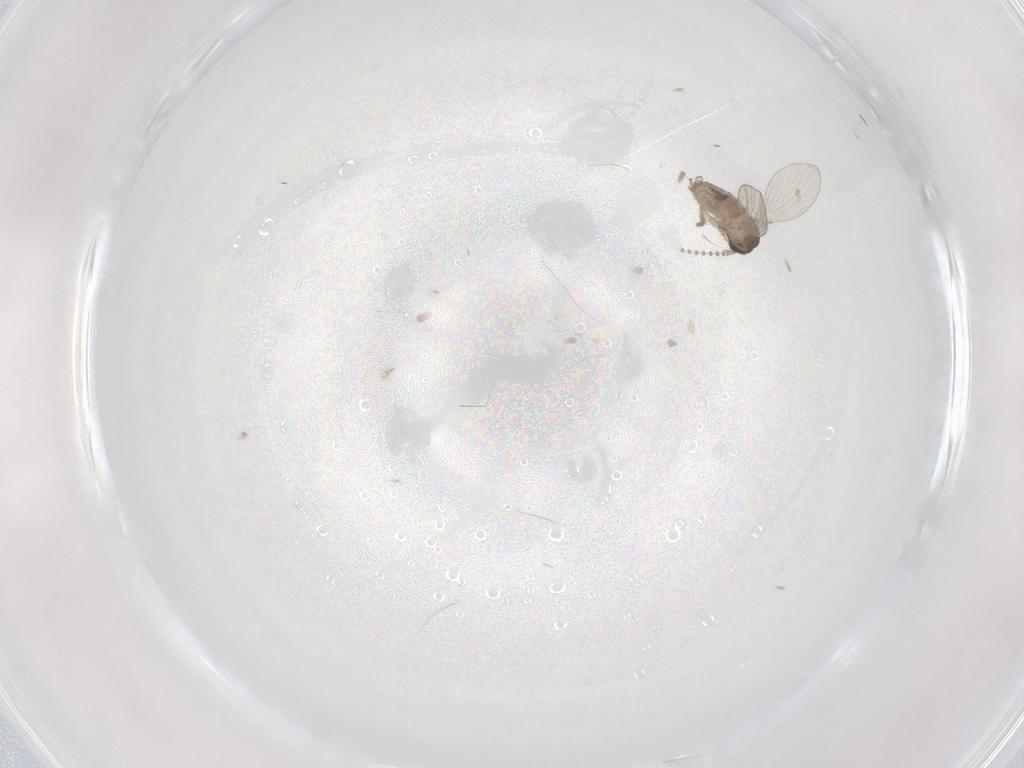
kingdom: Animalia
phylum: Arthropoda
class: Insecta
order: Diptera
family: Psychodidae
